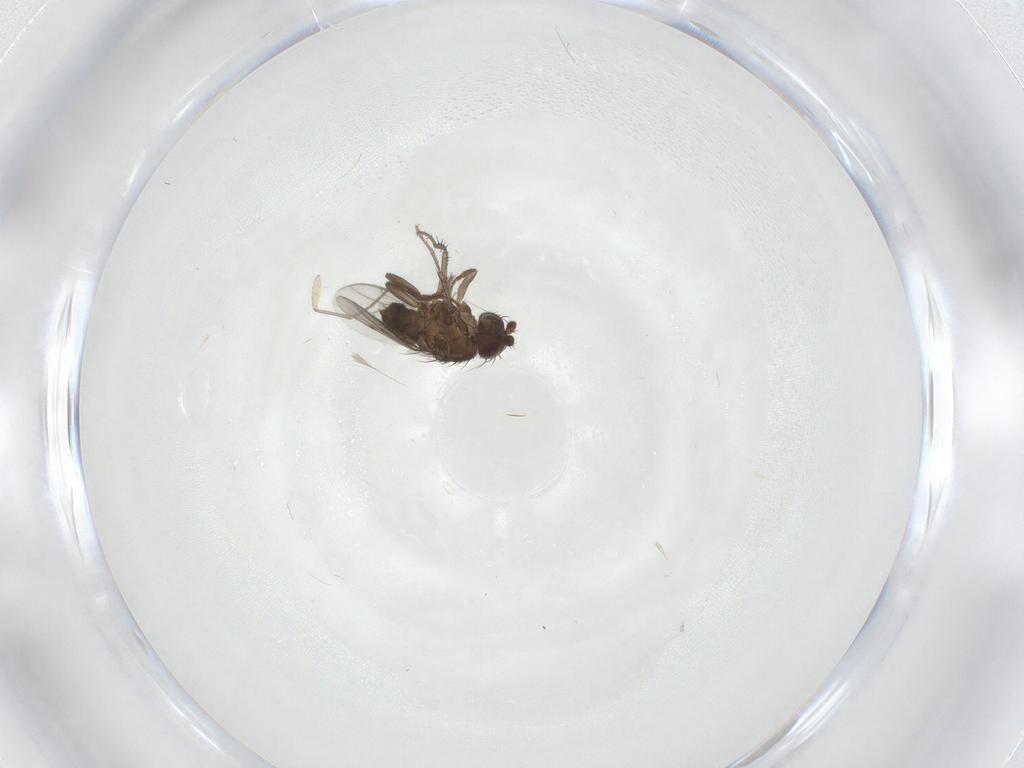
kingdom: Animalia
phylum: Arthropoda
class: Insecta
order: Diptera
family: Sphaeroceridae
